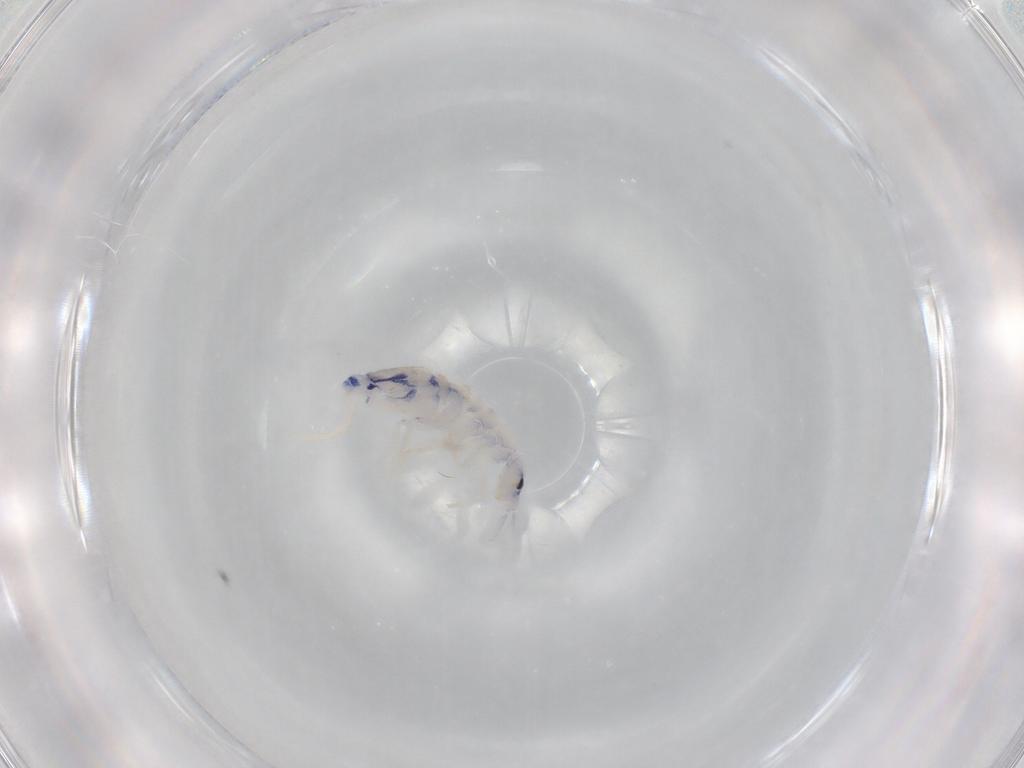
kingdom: Animalia
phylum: Arthropoda
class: Collembola
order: Entomobryomorpha
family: Entomobryidae
